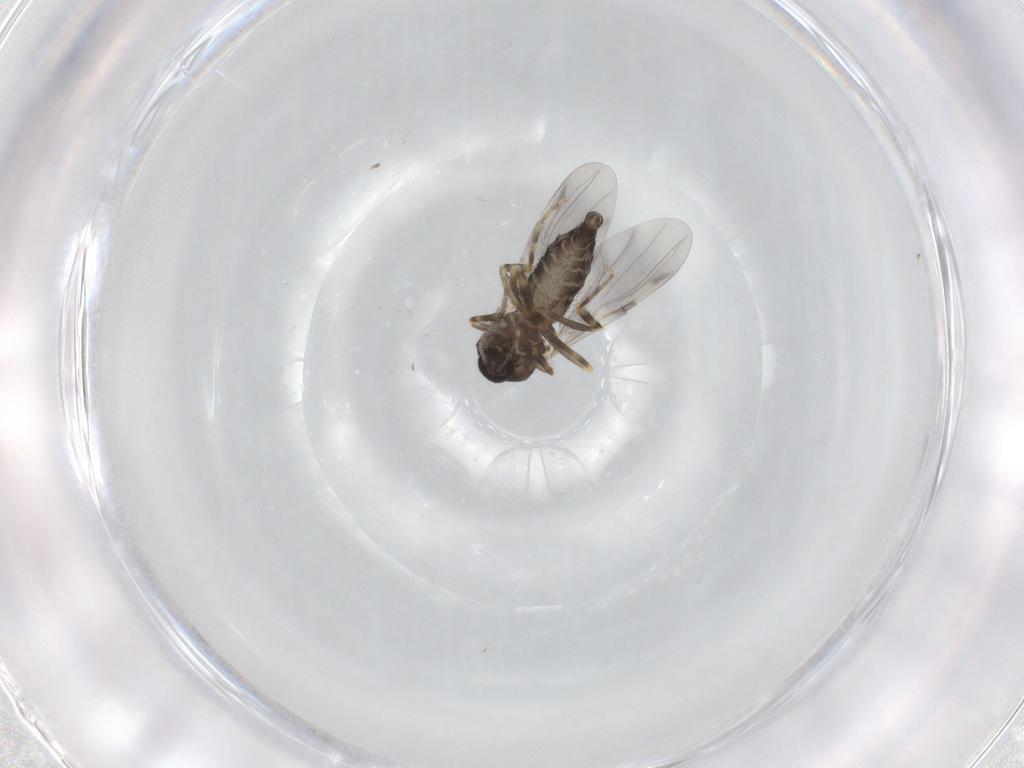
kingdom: Animalia
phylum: Arthropoda
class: Insecta
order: Diptera
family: Ceratopogonidae
